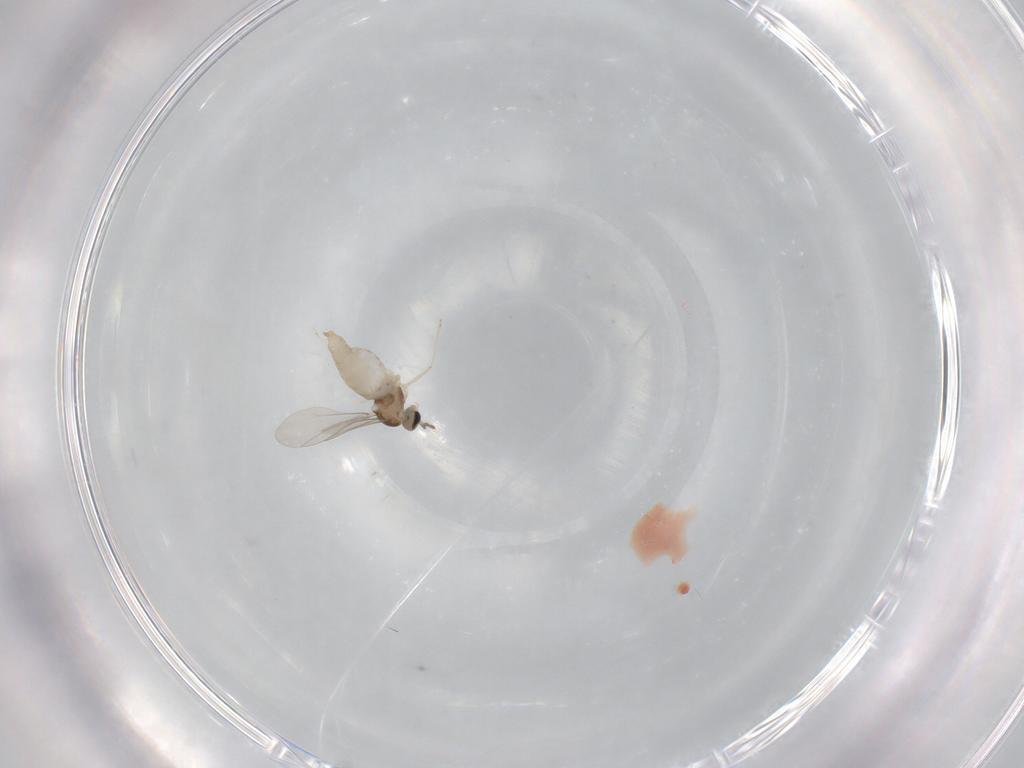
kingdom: Animalia
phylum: Arthropoda
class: Insecta
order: Diptera
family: Cecidomyiidae
